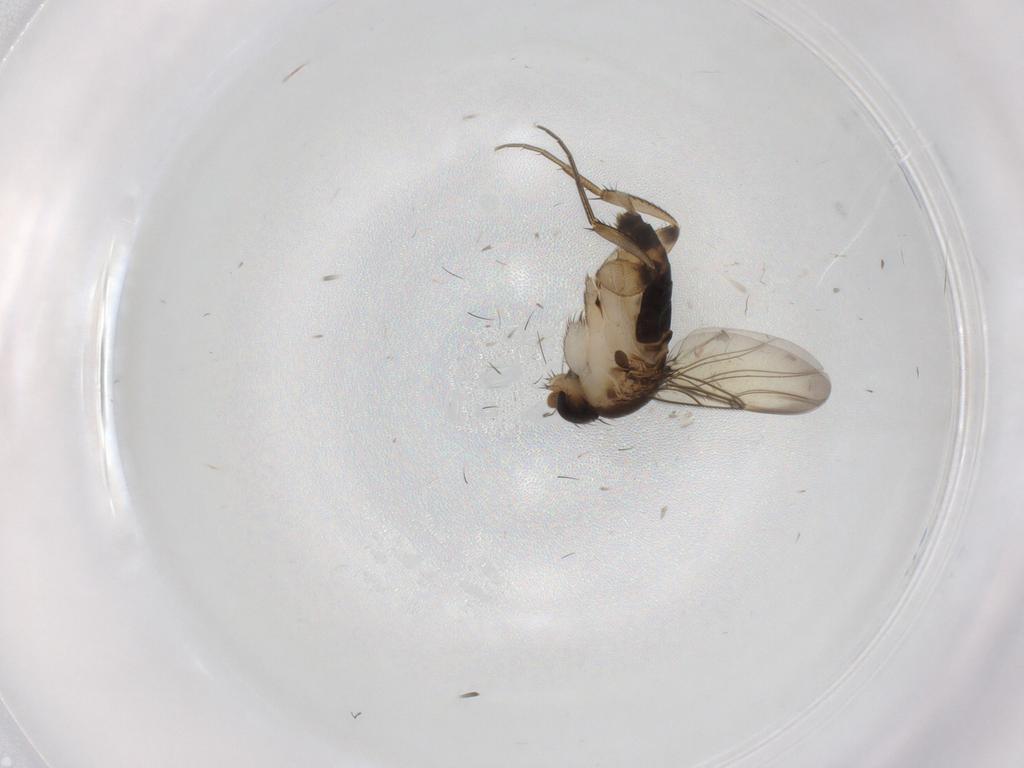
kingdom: Animalia
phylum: Arthropoda
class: Insecta
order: Diptera
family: Chironomidae
